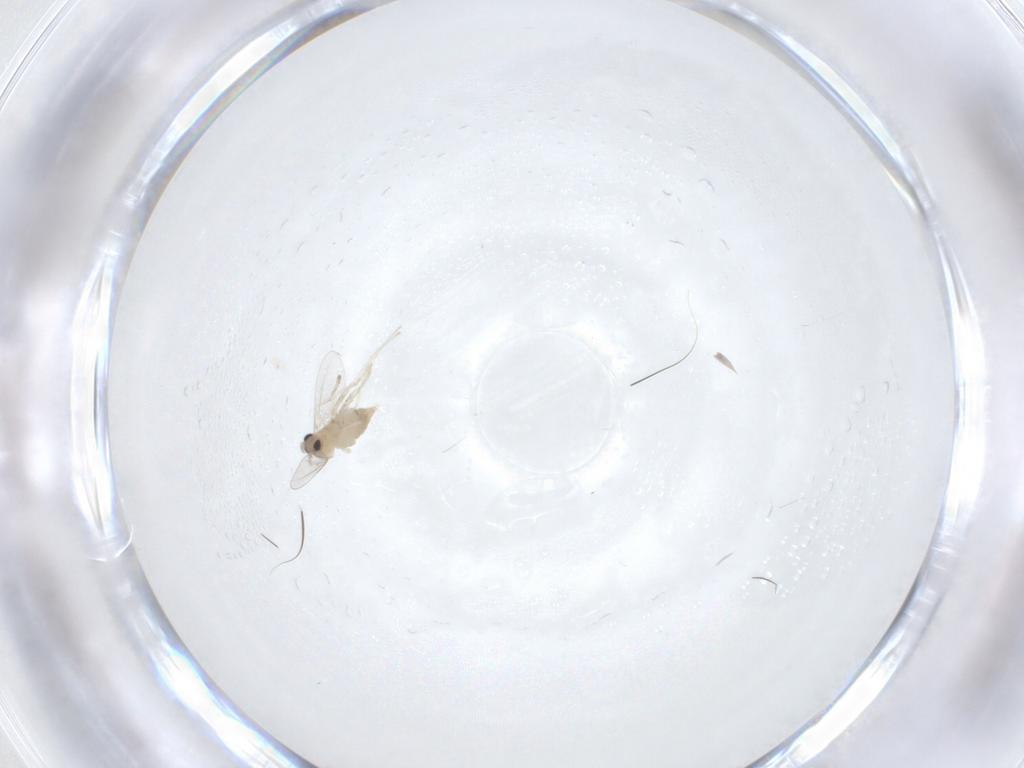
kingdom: Animalia
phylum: Arthropoda
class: Insecta
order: Diptera
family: Cecidomyiidae
